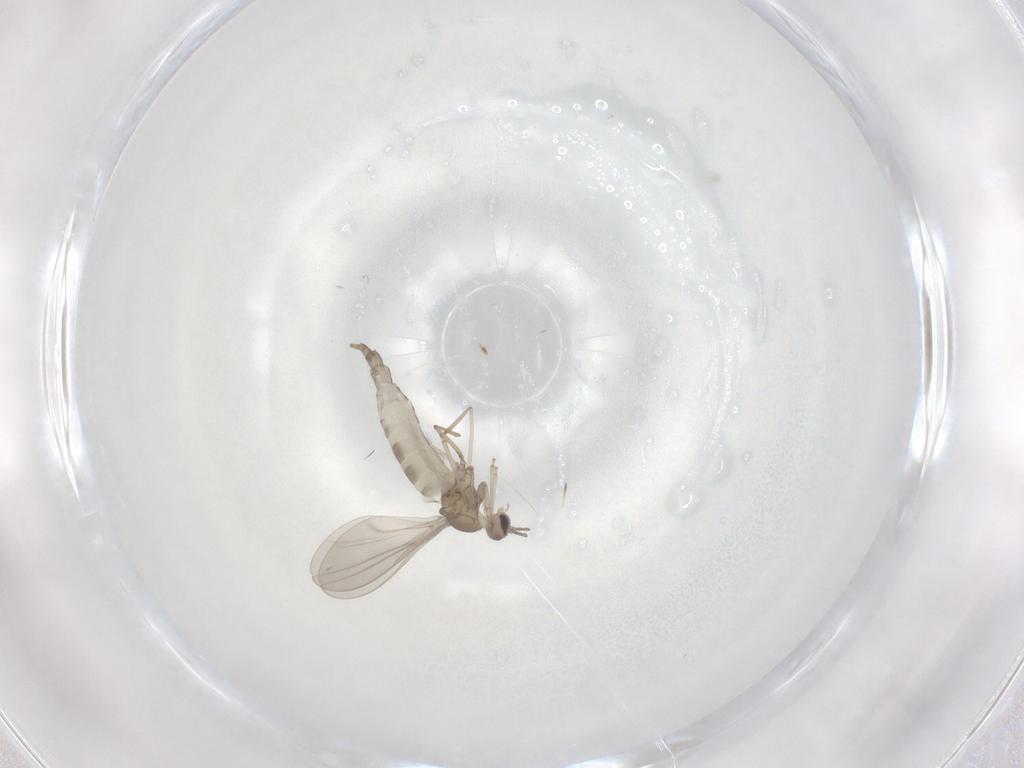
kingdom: Animalia
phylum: Arthropoda
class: Insecta
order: Diptera
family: Cecidomyiidae
